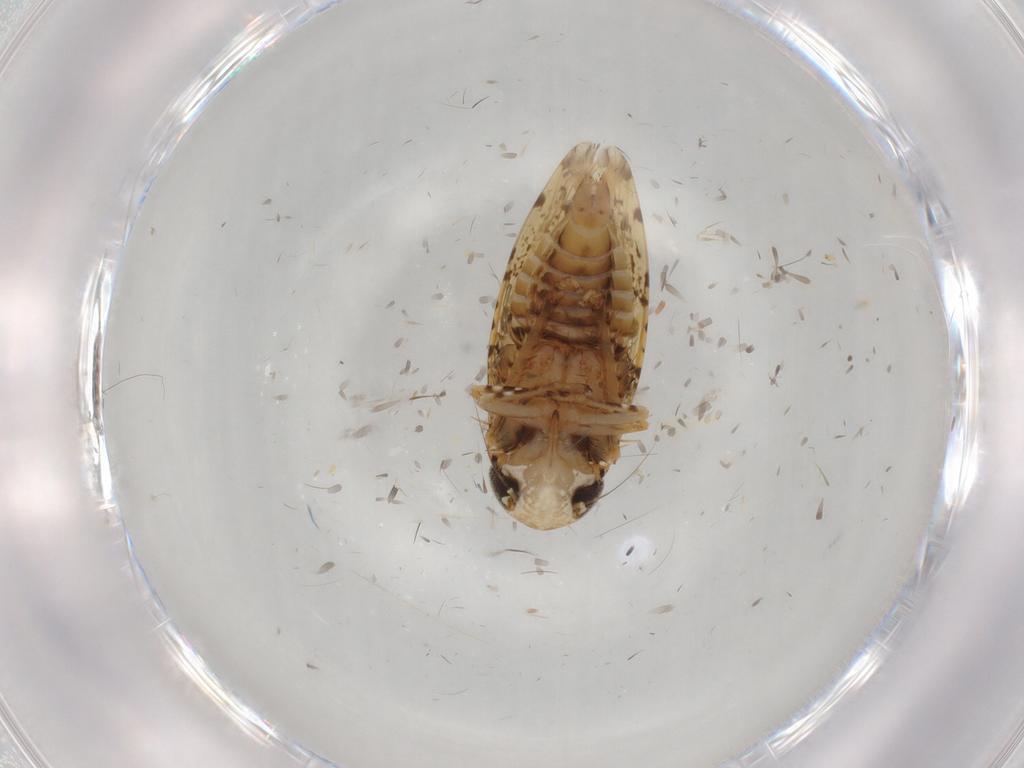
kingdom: Animalia
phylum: Arthropoda
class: Insecta
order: Hemiptera
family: Cicadellidae
